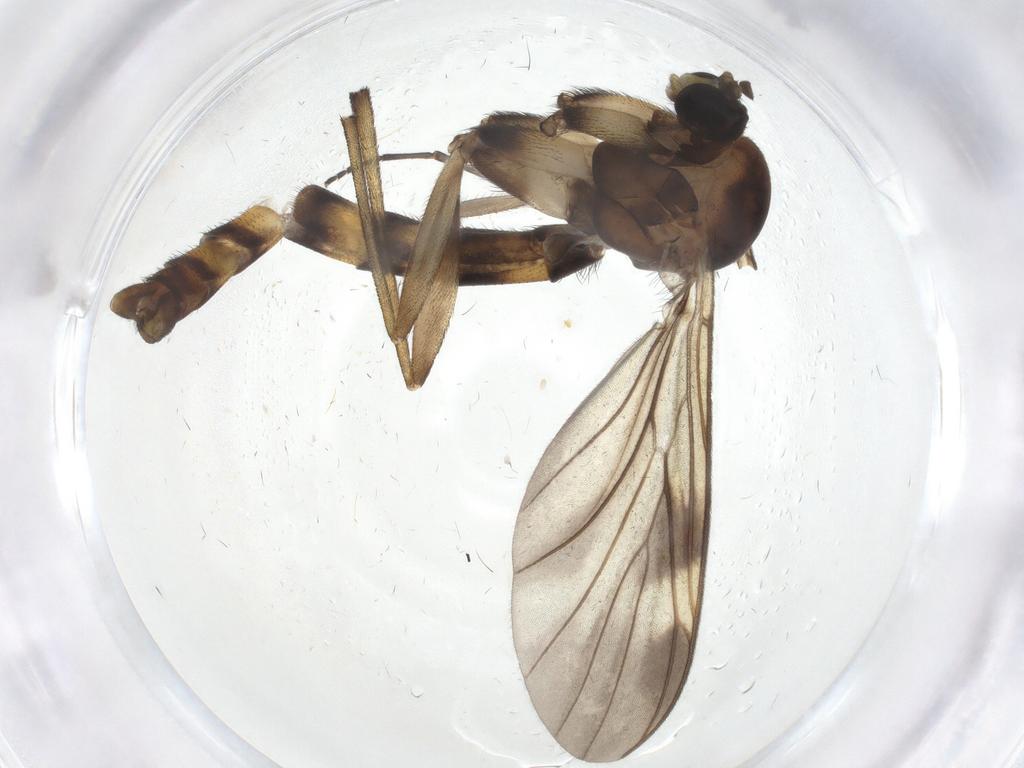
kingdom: Animalia
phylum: Arthropoda
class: Insecta
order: Diptera
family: Keroplatidae
